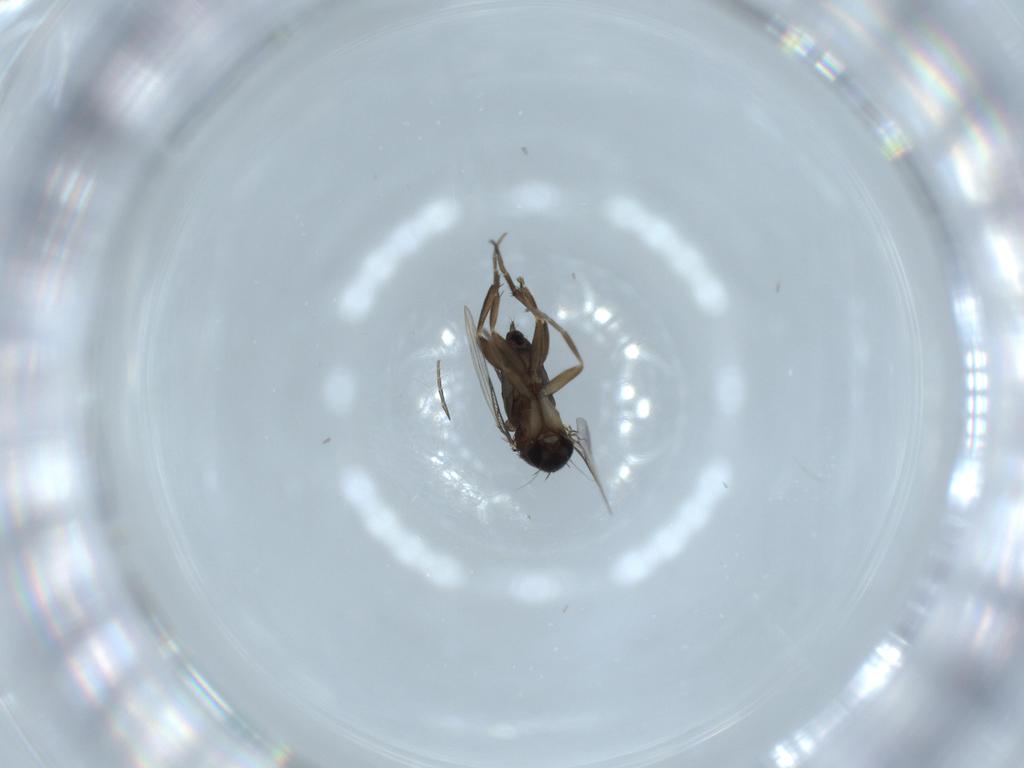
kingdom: Animalia
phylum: Arthropoda
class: Insecta
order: Diptera
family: Phoridae
